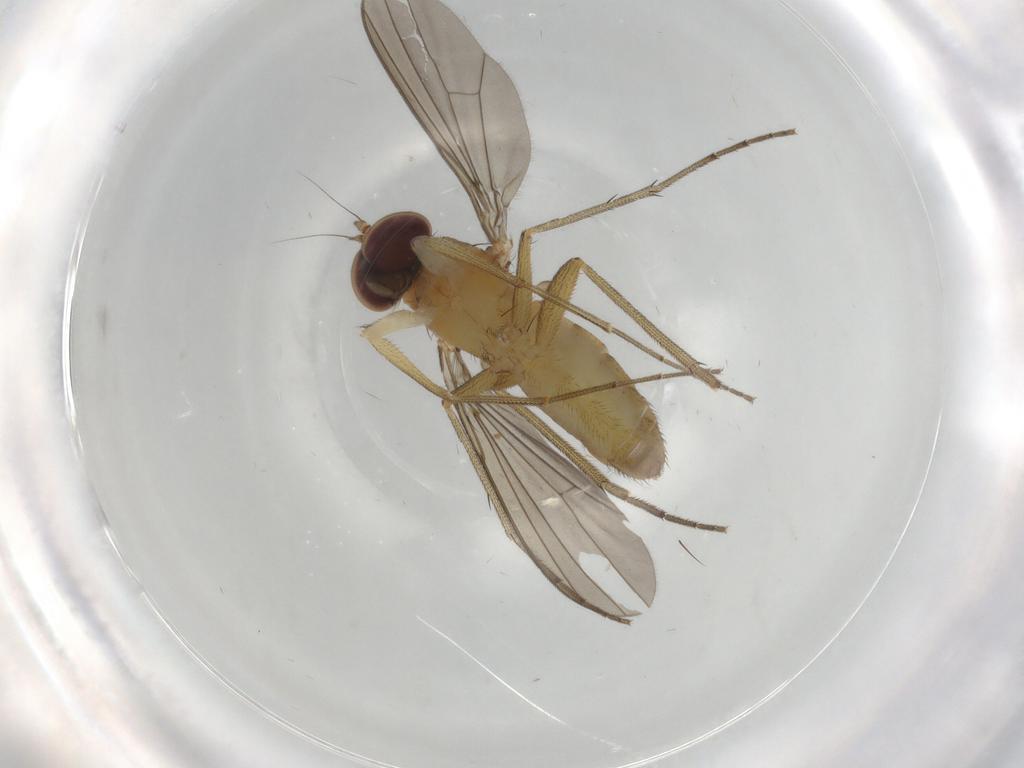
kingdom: Animalia
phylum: Arthropoda
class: Insecta
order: Diptera
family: Dolichopodidae
